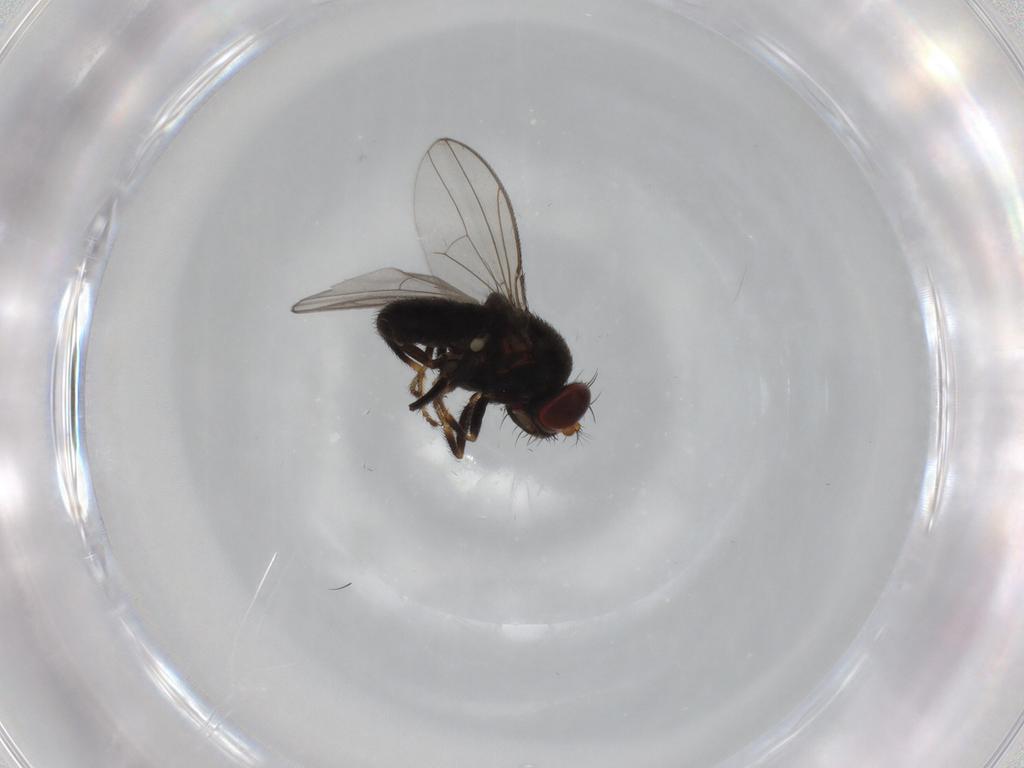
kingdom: Animalia
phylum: Arthropoda
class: Insecta
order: Diptera
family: Ephydridae
